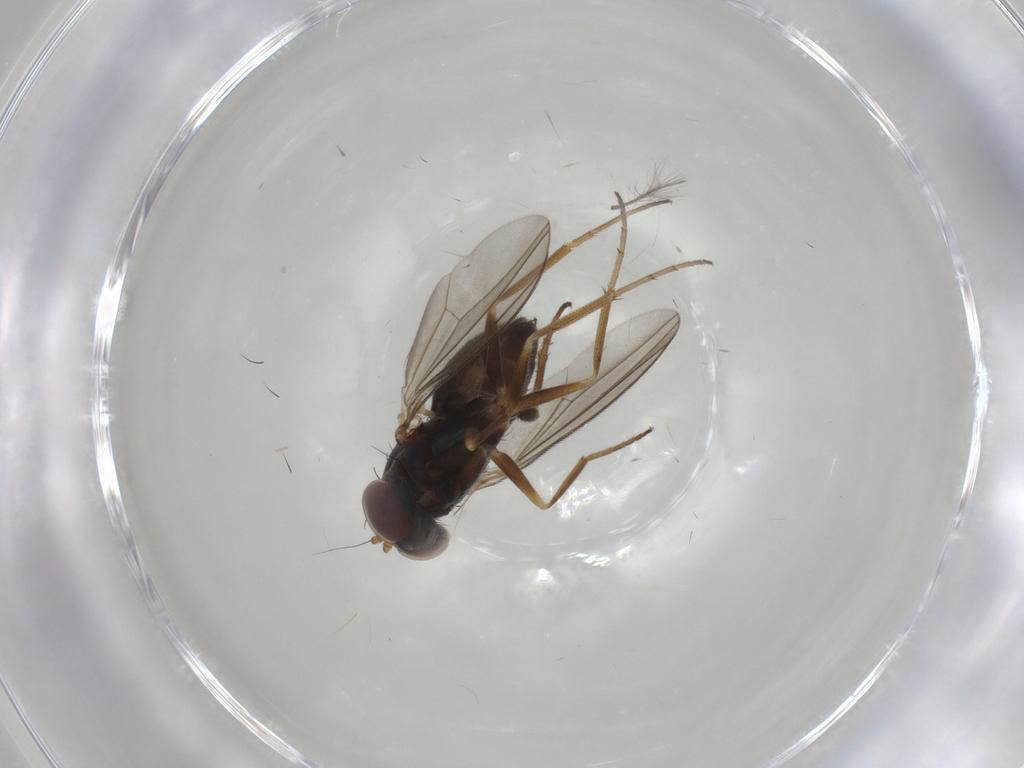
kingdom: Animalia
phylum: Arthropoda
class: Insecta
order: Diptera
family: Dolichopodidae
